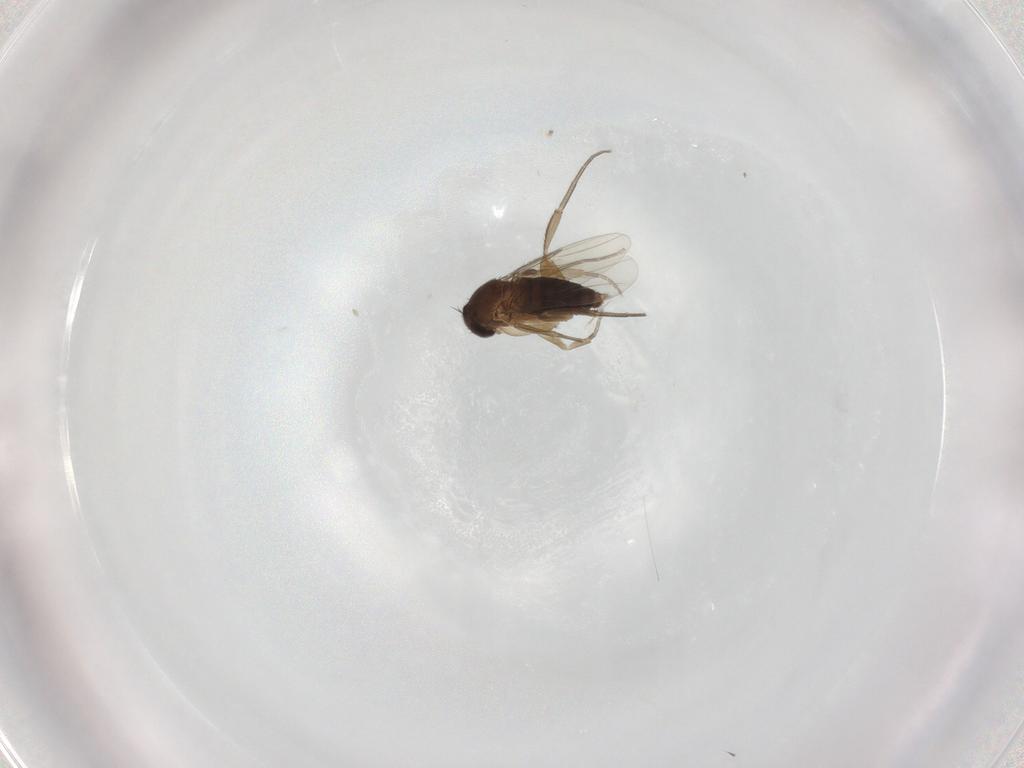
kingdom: Animalia
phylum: Arthropoda
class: Insecta
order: Diptera
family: Phoridae
